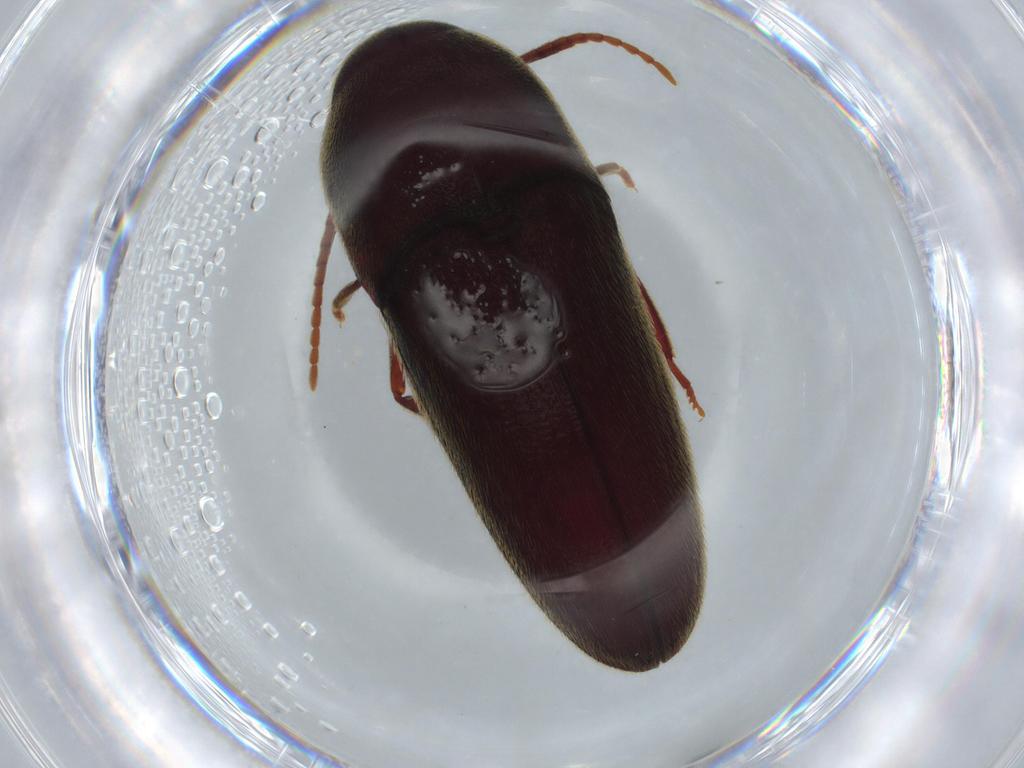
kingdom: Animalia
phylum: Arthropoda
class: Insecta
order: Coleoptera
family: Eucnemidae
